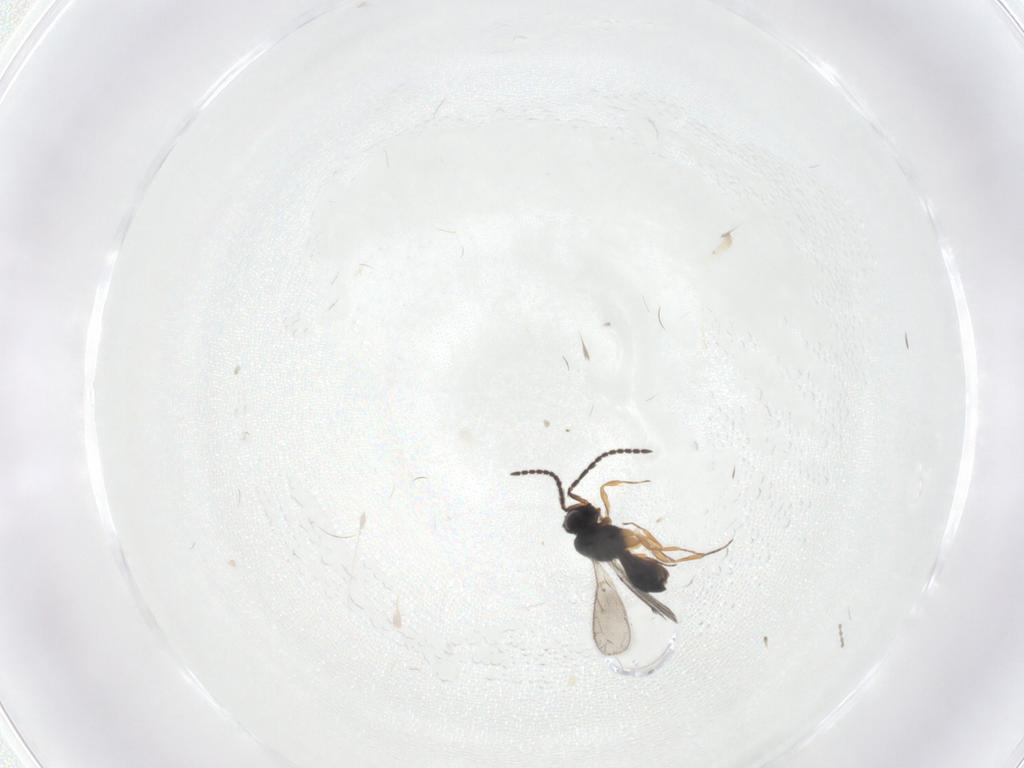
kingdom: Animalia
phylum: Arthropoda
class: Insecta
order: Hymenoptera
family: Scelionidae
